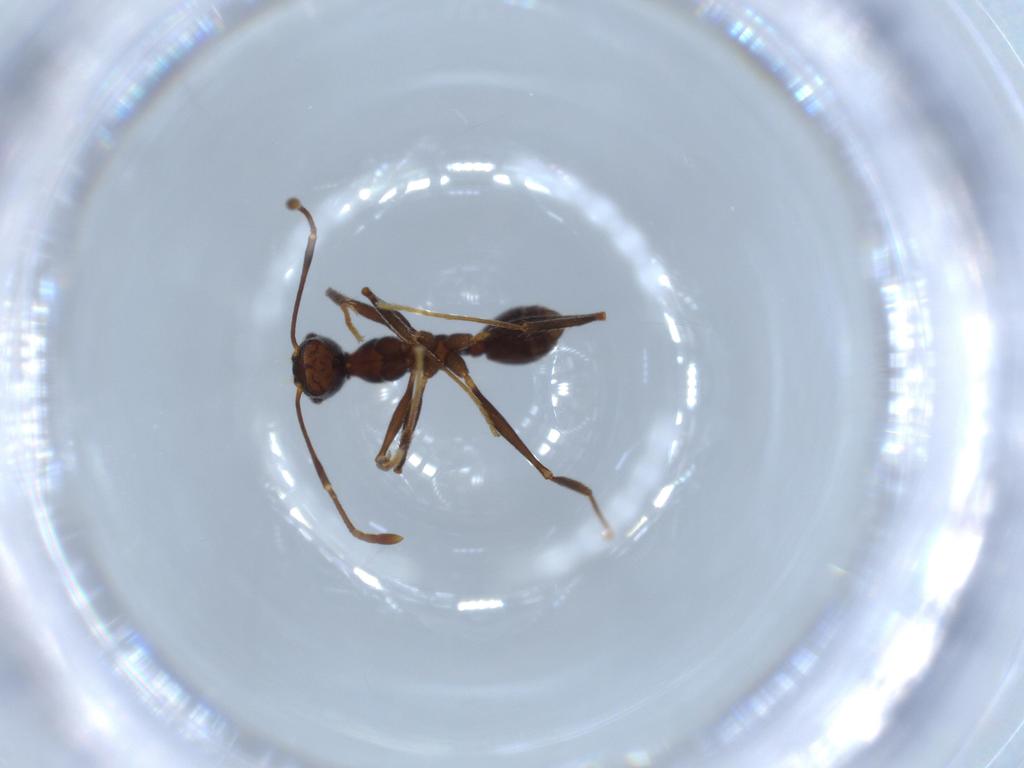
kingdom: Animalia
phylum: Arthropoda
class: Insecta
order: Hymenoptera
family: Formicidae
